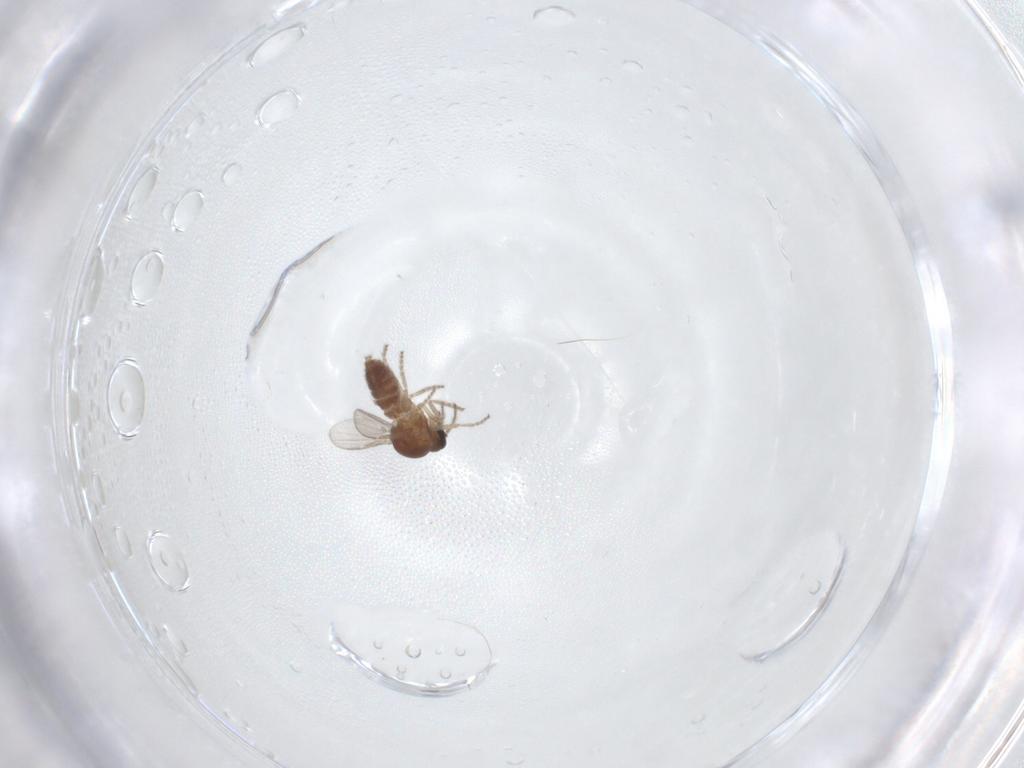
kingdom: Animalia
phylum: Arthropoda
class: Insecta
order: Diptera
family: Ceratopogonidae
